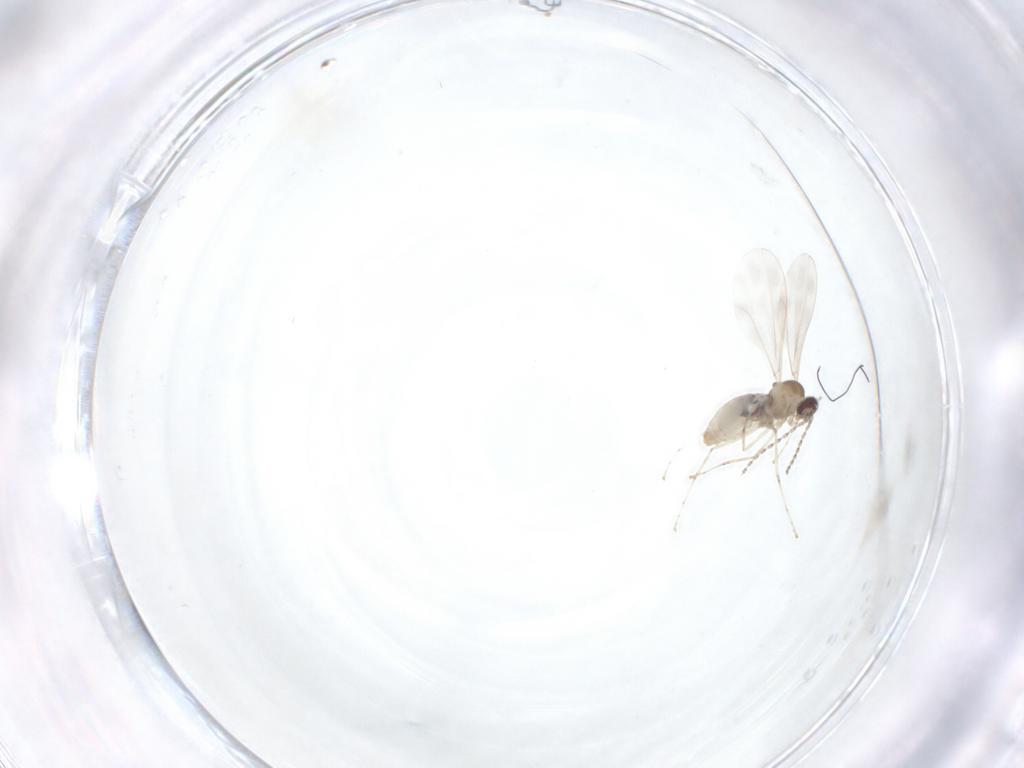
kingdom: Animalia
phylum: Arthropoda
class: Insecta
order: Diptera
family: Cecidomyiidae
